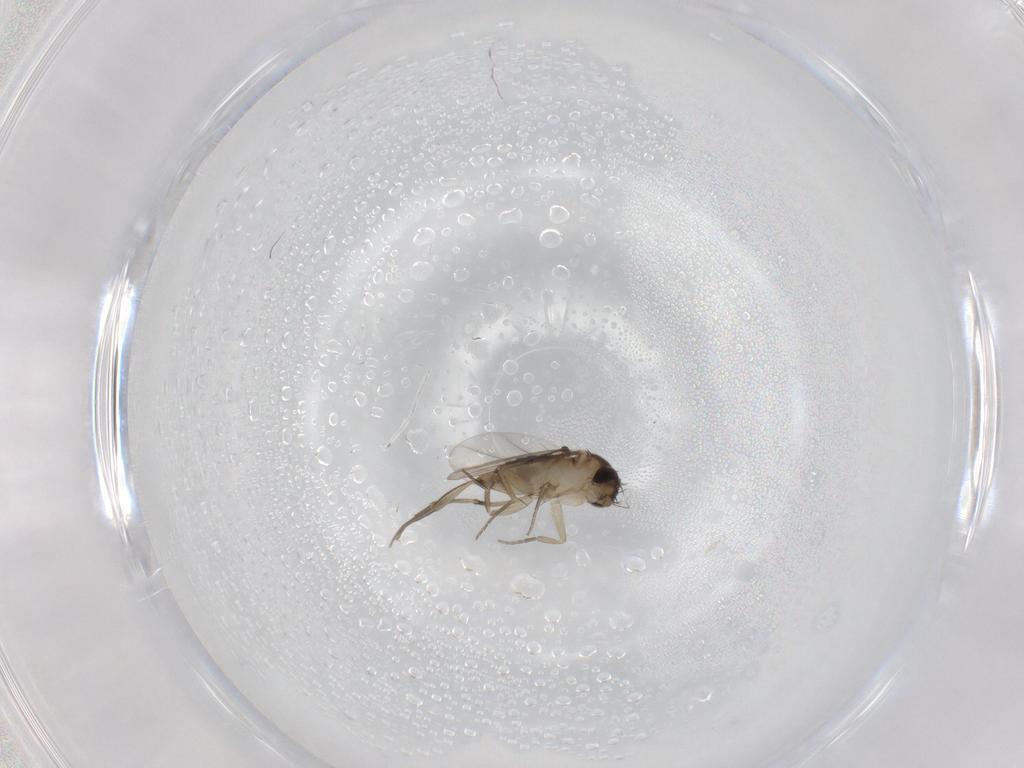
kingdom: Animalia
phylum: Arthropoda
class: Insecta
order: Diptera
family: Phoridae
